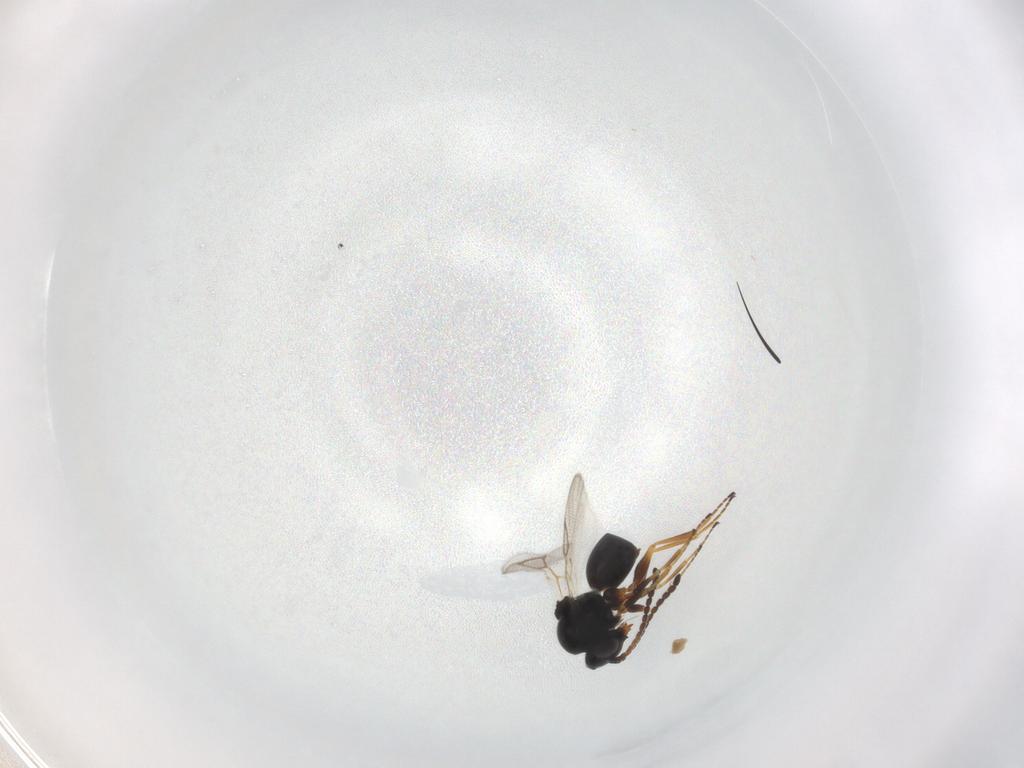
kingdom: Animalia
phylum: Arthropoda
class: Insecta
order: Hymenoptera
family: Figitidae
